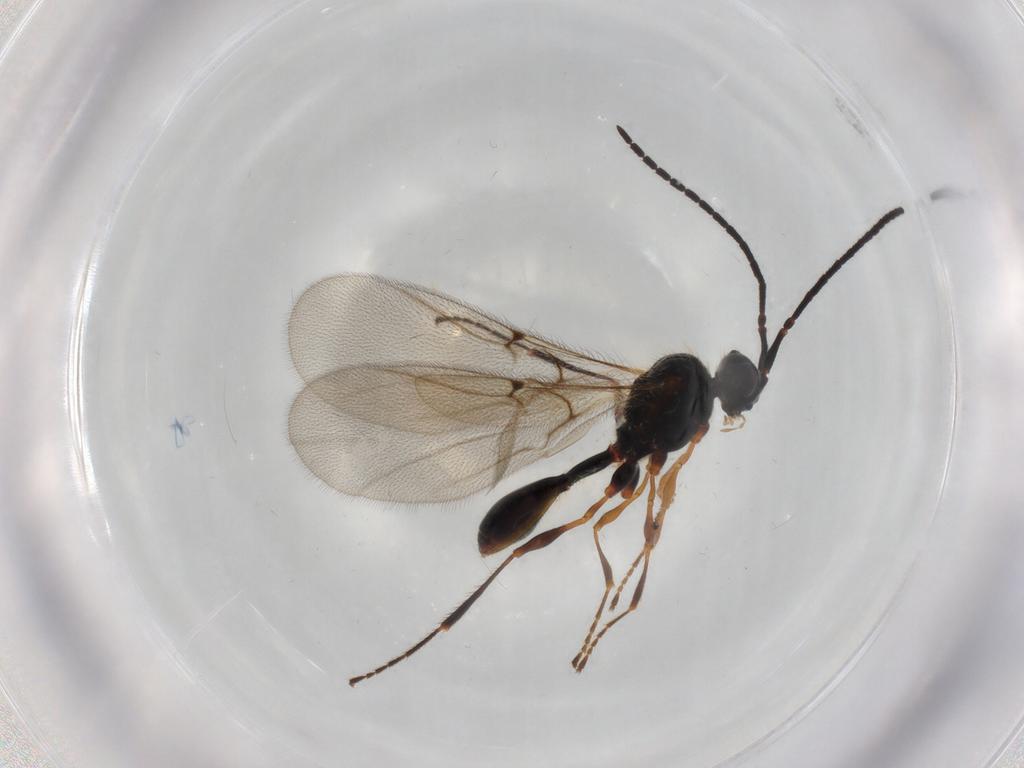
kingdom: Animalia
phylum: Arthropoda
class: Insecta
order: Hymenoptera
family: Diapriidae
